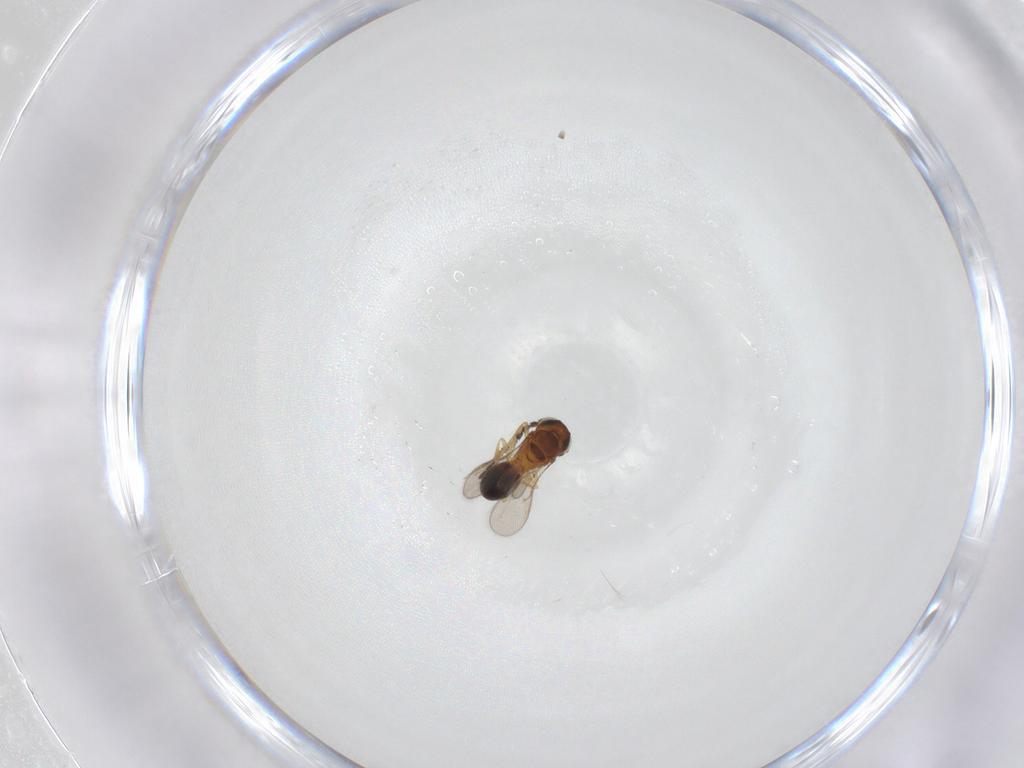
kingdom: Animalia
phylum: Arthropoda
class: Insecta
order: Hymenoptera
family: Scelionidae
